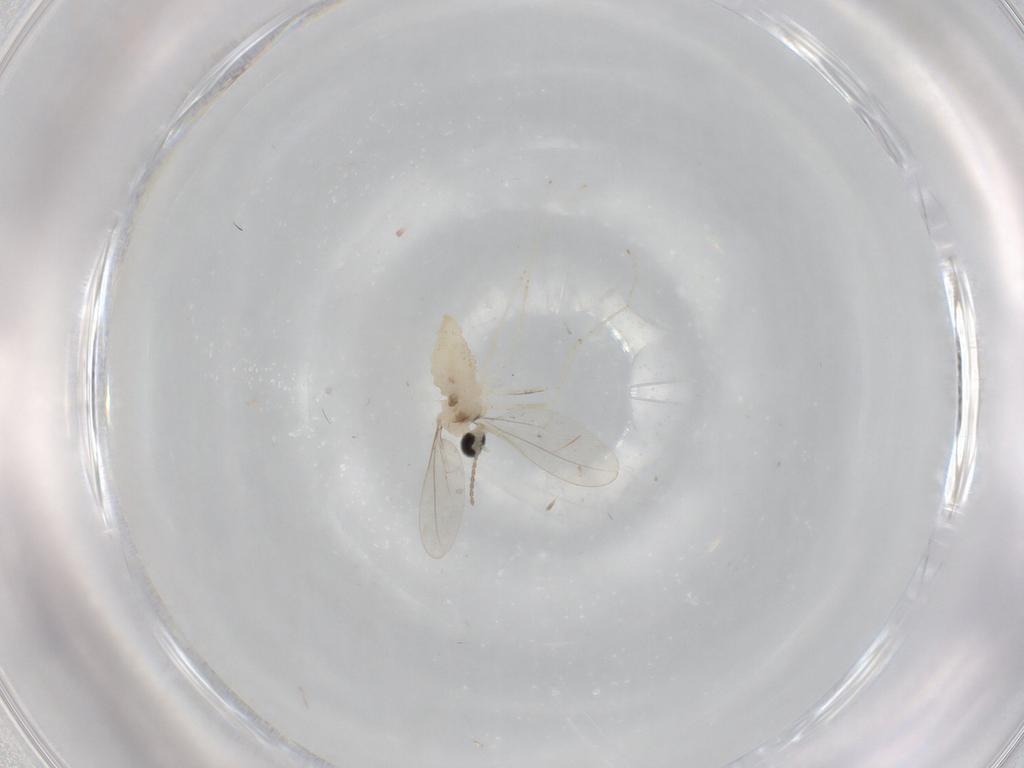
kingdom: Animalia
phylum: Arthropoda
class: Insecta
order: Diptera
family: Cecidomyiidae
